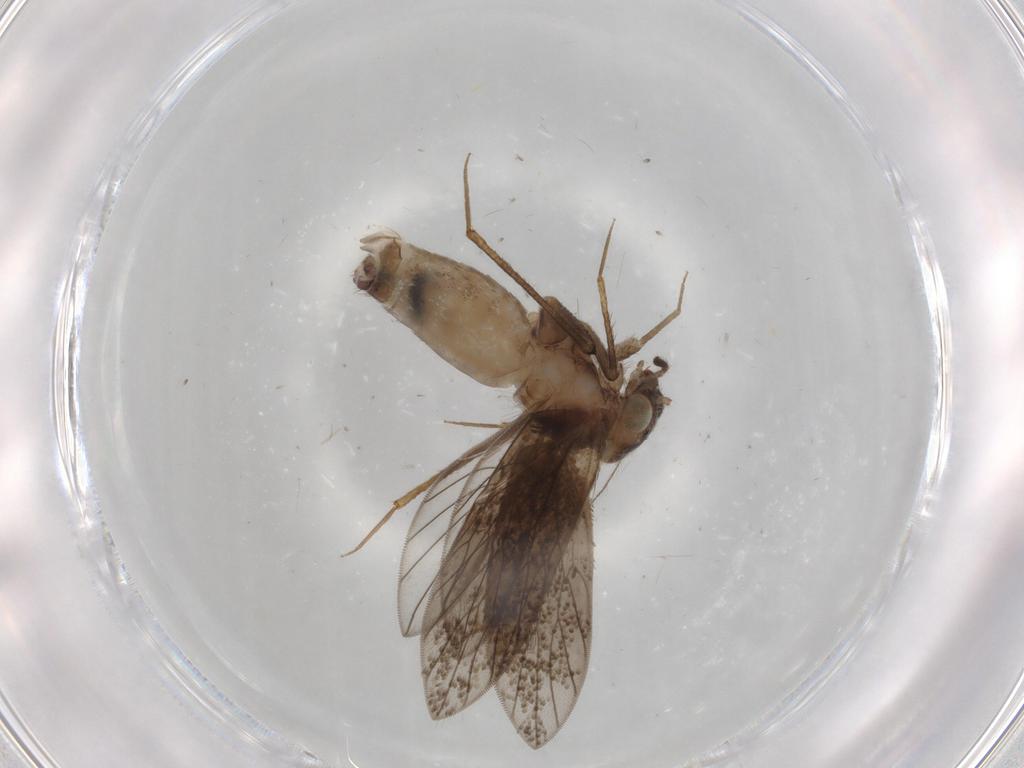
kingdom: Animalia
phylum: Arthropoda
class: Insecta
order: Psocodea
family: Lepidopsocidae
